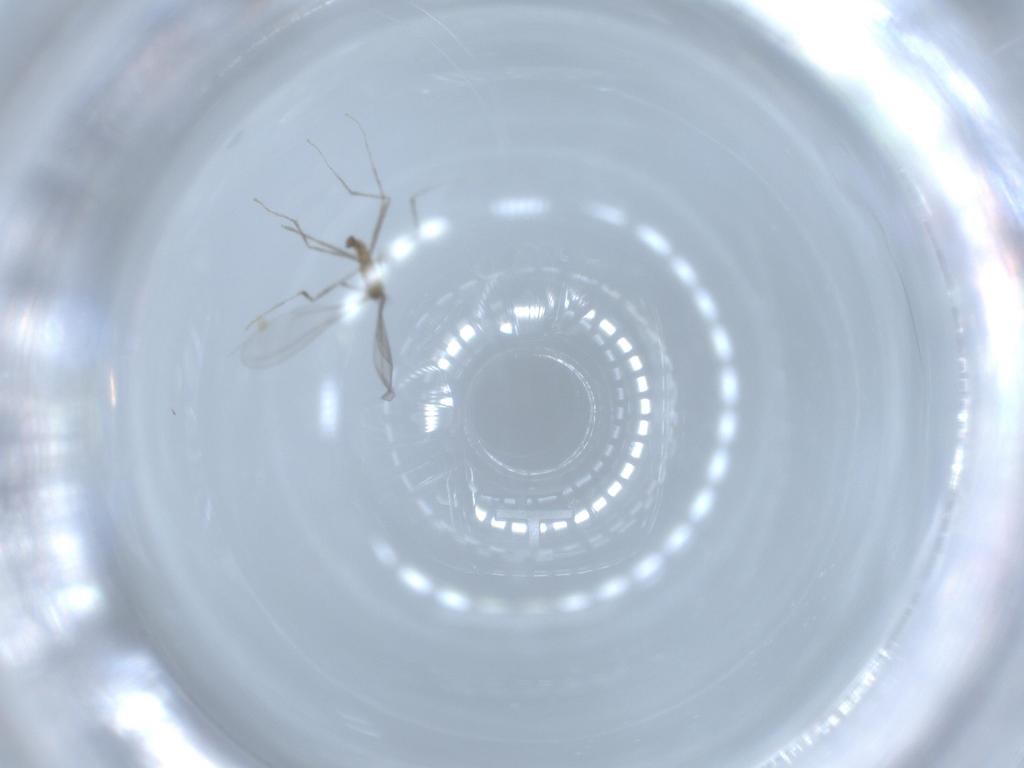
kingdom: Animalia
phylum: Arthropoda
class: Insecta
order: Diptera
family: Cecidomyiidae
